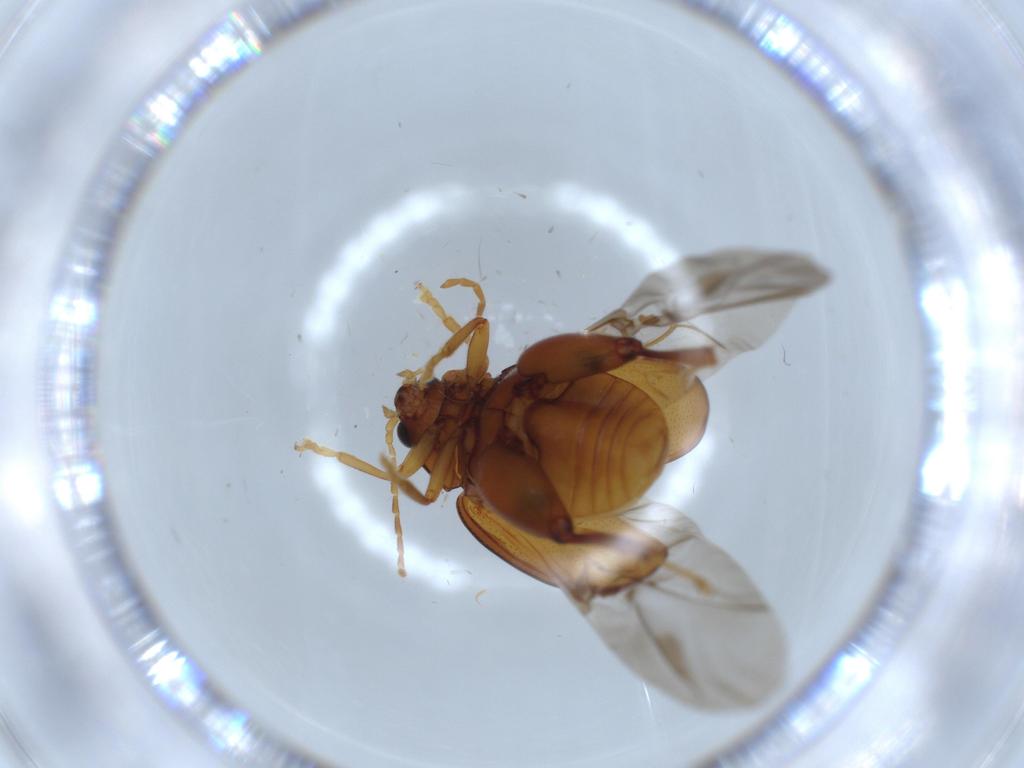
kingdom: Animalia
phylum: Arthropoda
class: Insecta
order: Coleoptera
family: Chrysomelidae
